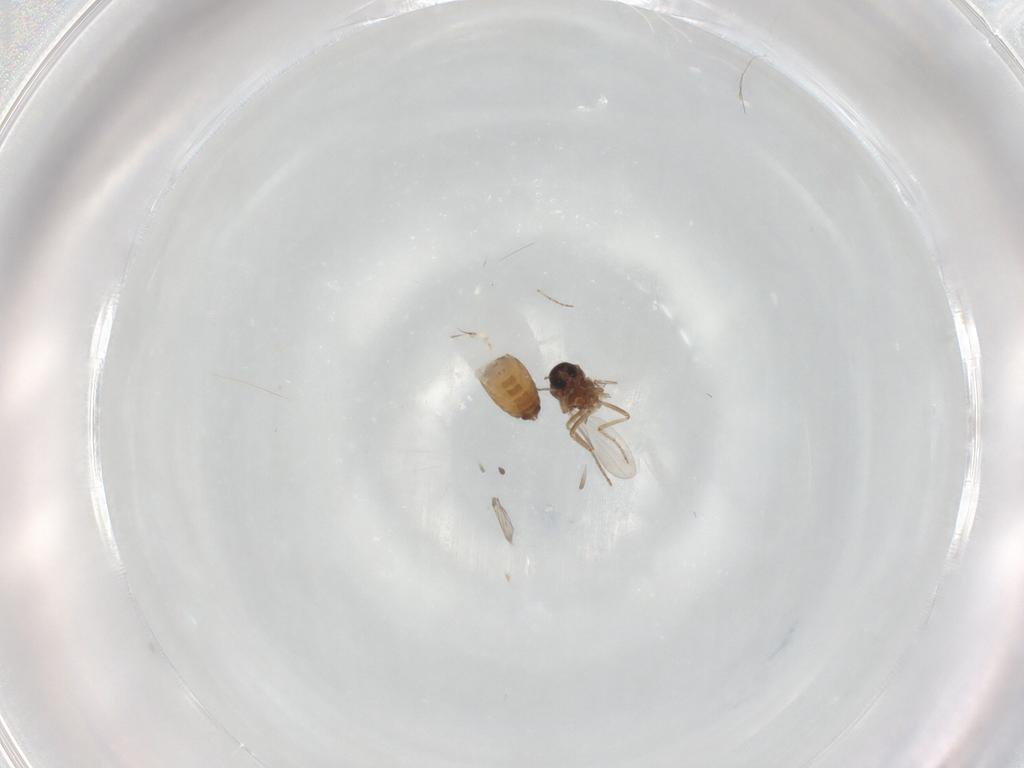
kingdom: Animalia
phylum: Arthropoda
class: Insecta
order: Diptera
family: Ceratopogonidae
